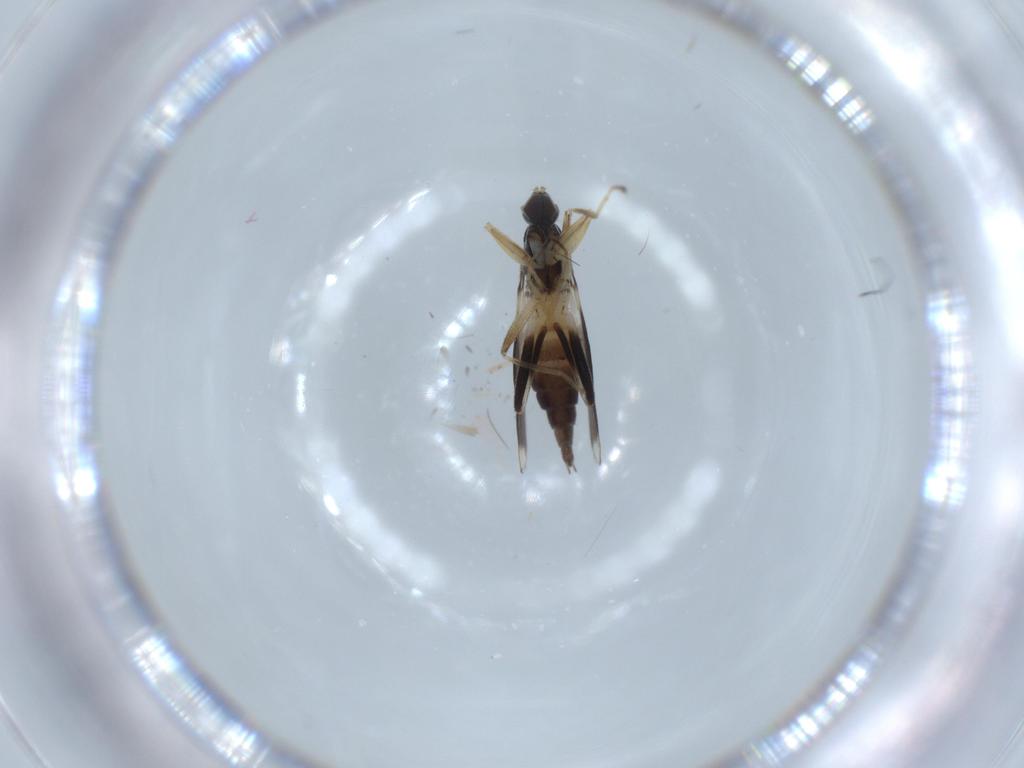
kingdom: Animalia
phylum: Arthropoda
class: Insecta
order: Diptera
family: Hybotidae
